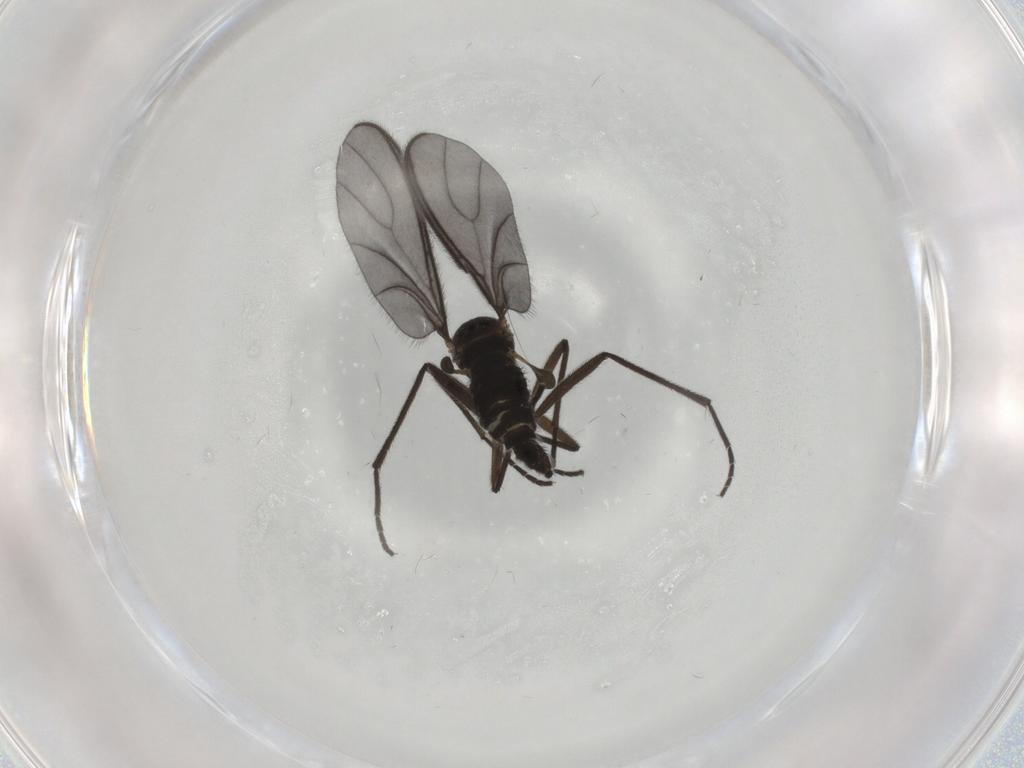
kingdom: Animalia
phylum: Arthropoda
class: Insecta
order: Diptera
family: Sciaridae
